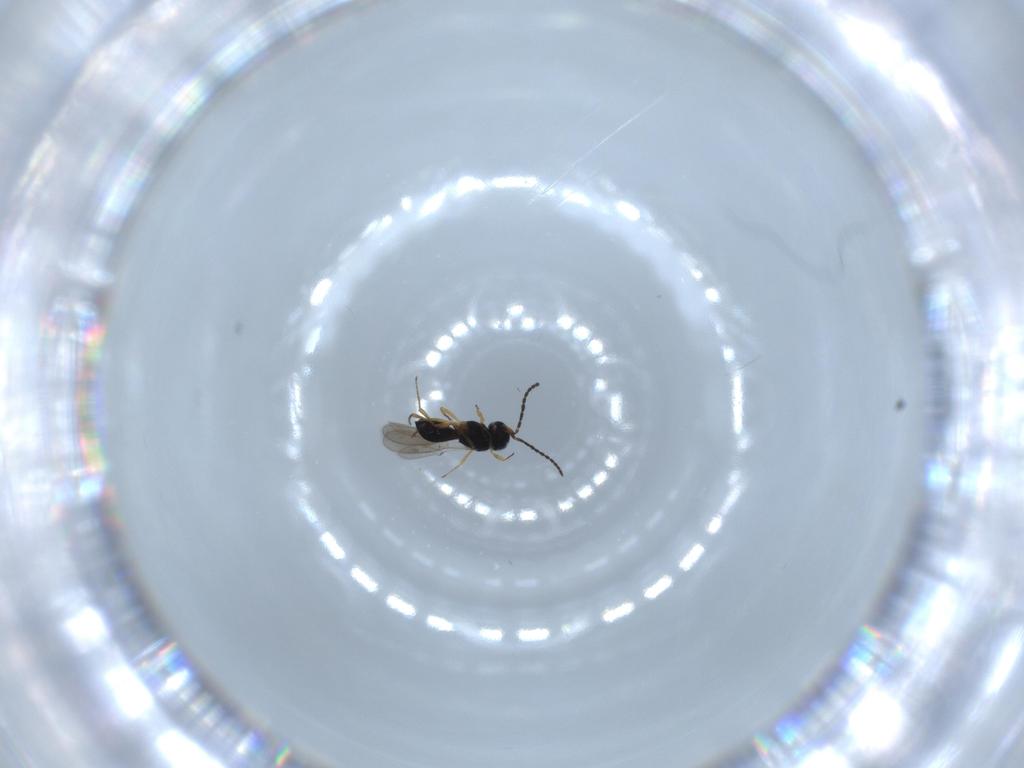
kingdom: Animalia
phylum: Arthropoda
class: Insecta
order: Hymenoptera
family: Scelionidae
